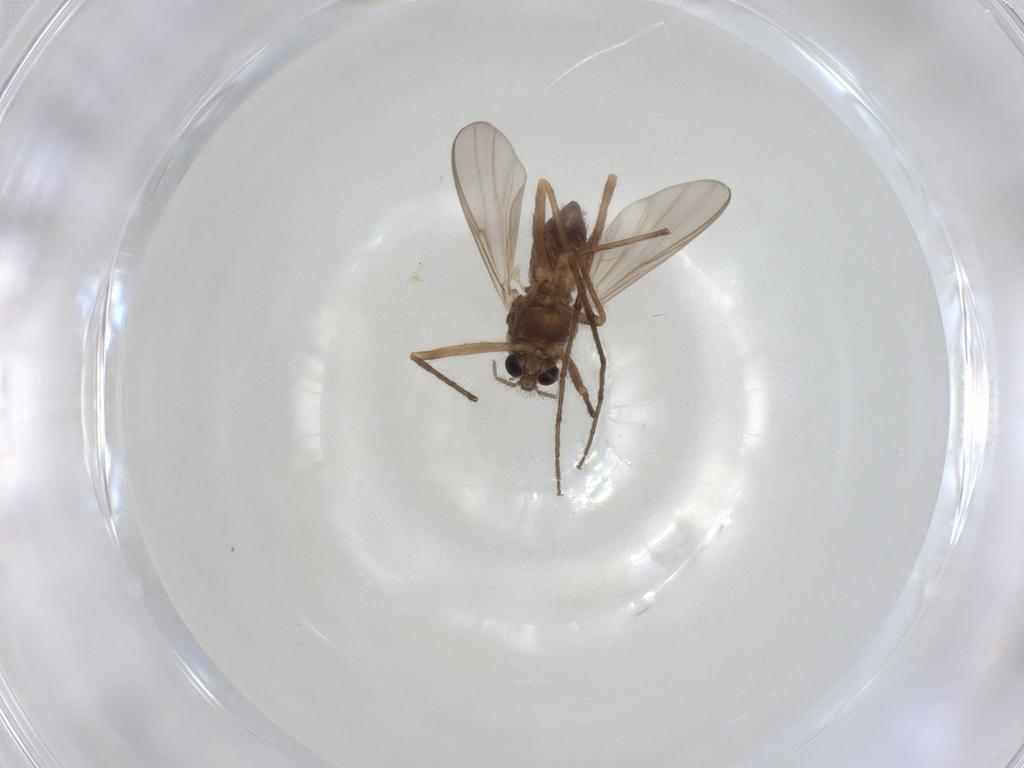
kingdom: Animalia
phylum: Arthropoda
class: Insecta
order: Diptera
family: Chironomidae
